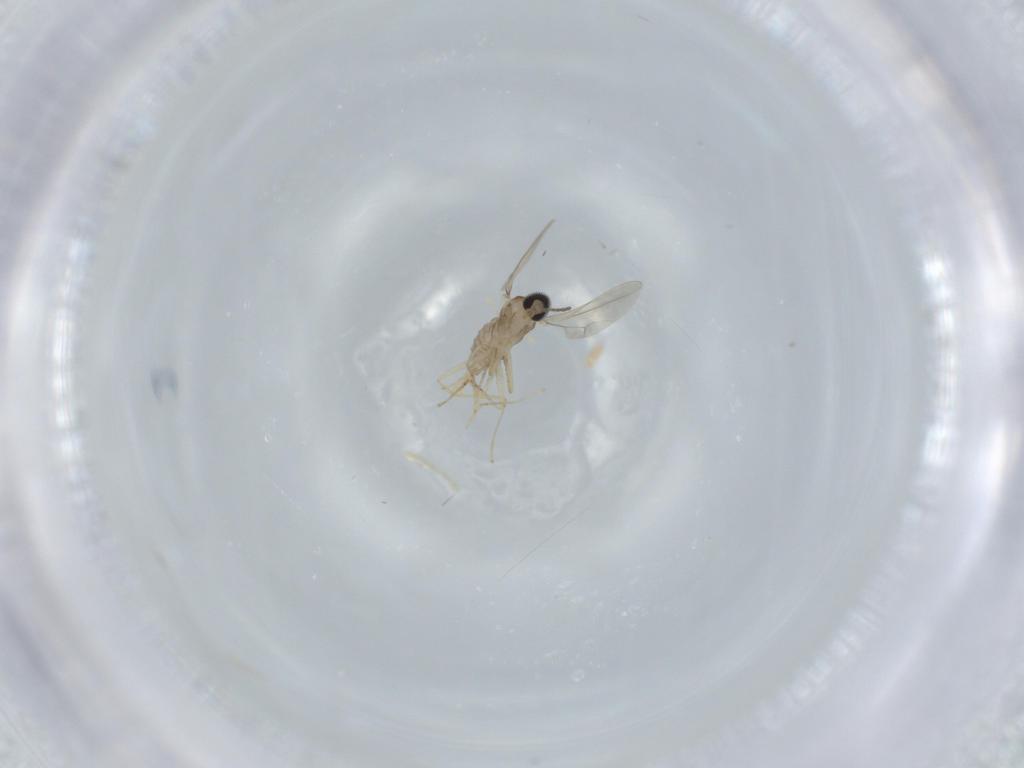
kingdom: Animalia
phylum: Arthropoda
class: Insecta
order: Diptera
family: Cecidomyiidae
